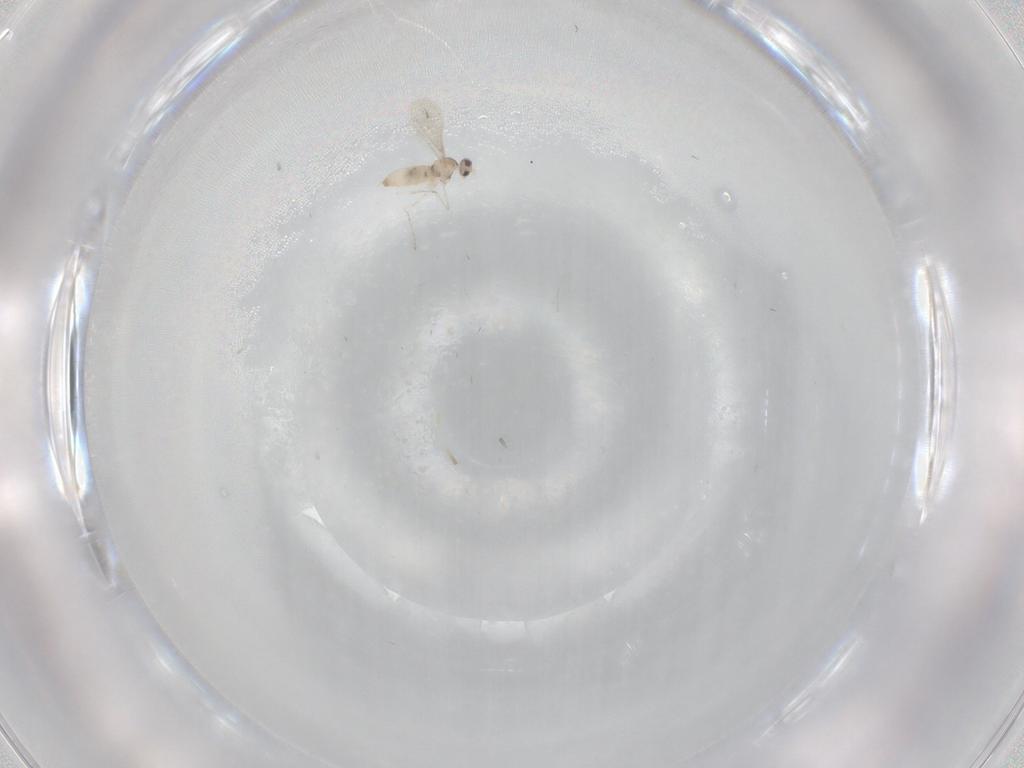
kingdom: Animalia
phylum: Arthropoda
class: Insecta
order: Diptera
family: Cecidomyiidae
